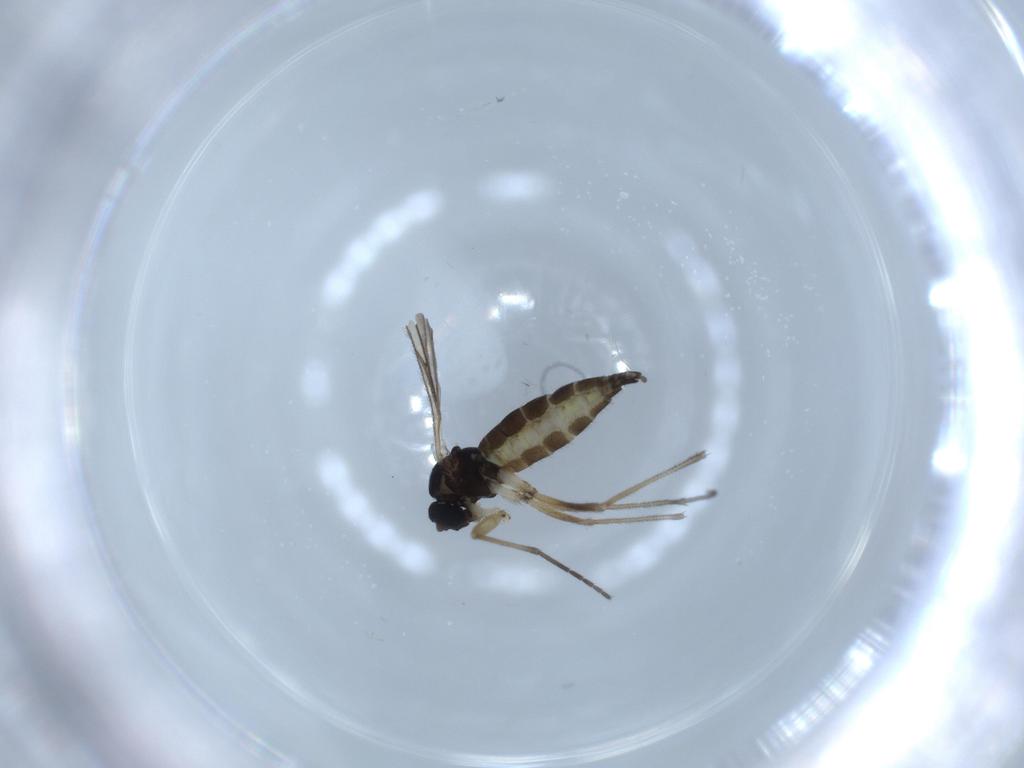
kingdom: Animalia
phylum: Arthropoda
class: Insecta
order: Diptera
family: Sciaridae
